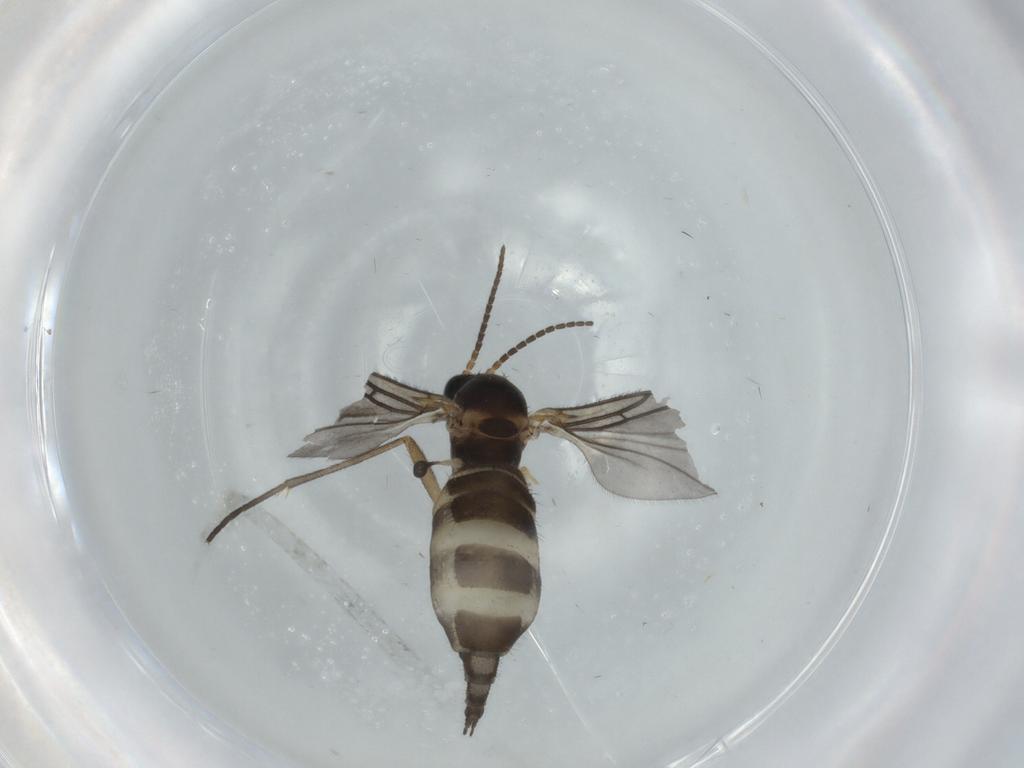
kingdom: Animalia
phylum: Arthropoda
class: Insecta
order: Diptera
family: Sciaridae
